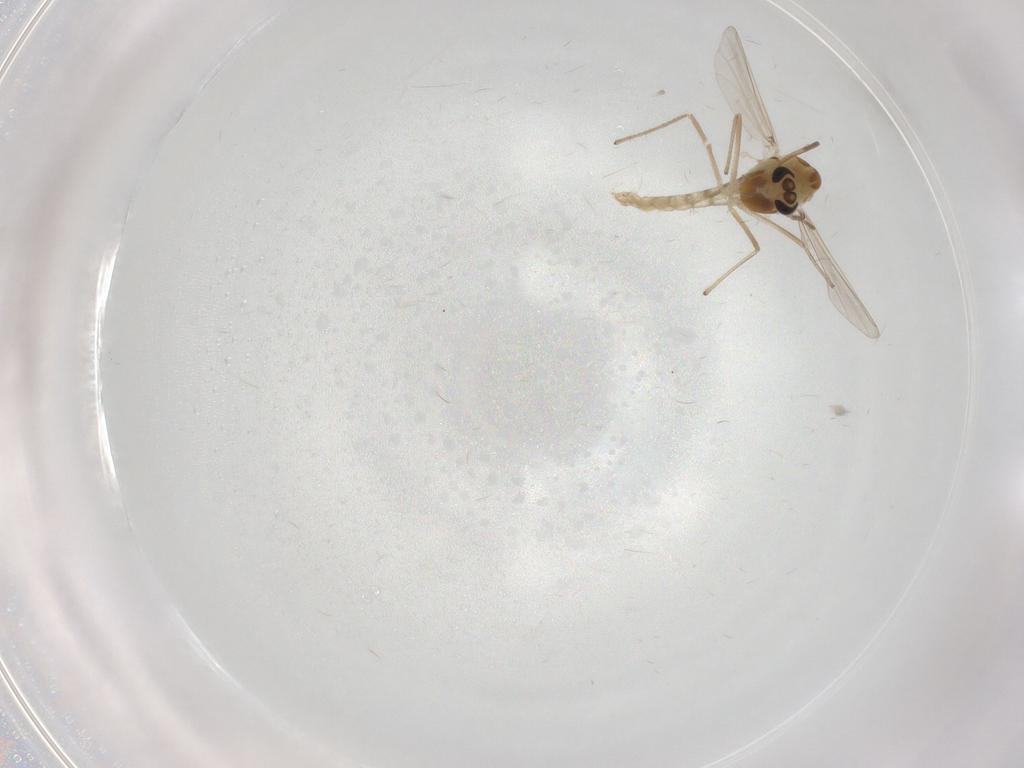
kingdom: Animalia
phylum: Arthropoda
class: Insecta
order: Diptera
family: Chironomidae
